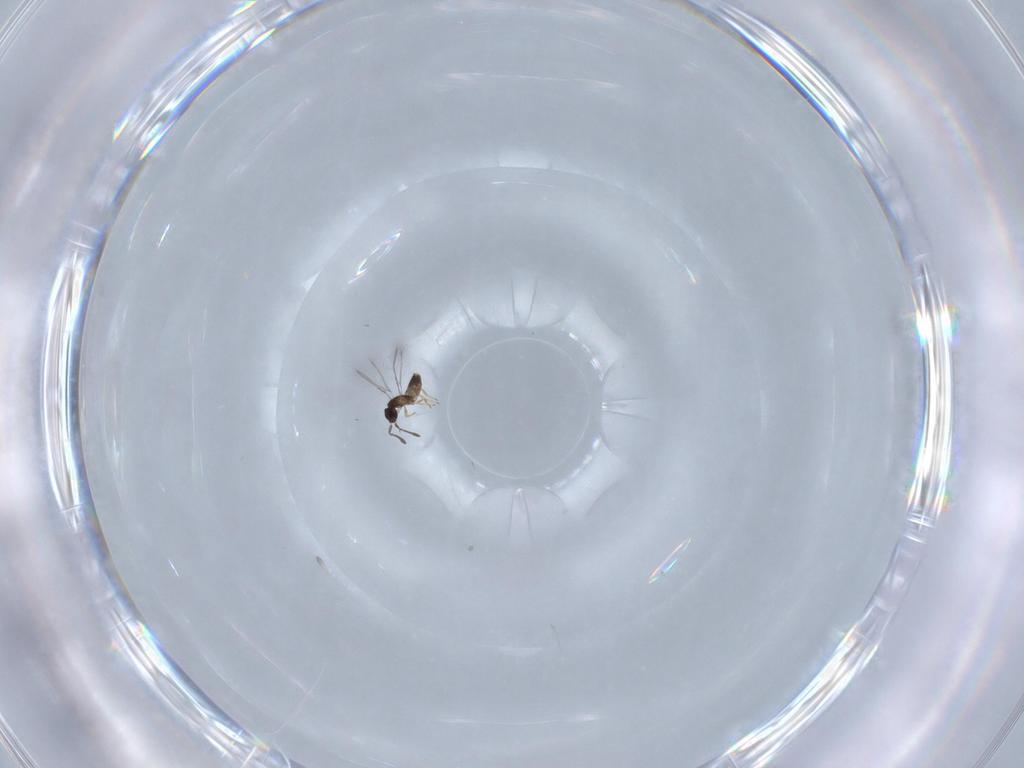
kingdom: Animalia
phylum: Arthropoda
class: Insecta
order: Hymenoptera
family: Mymaridae
